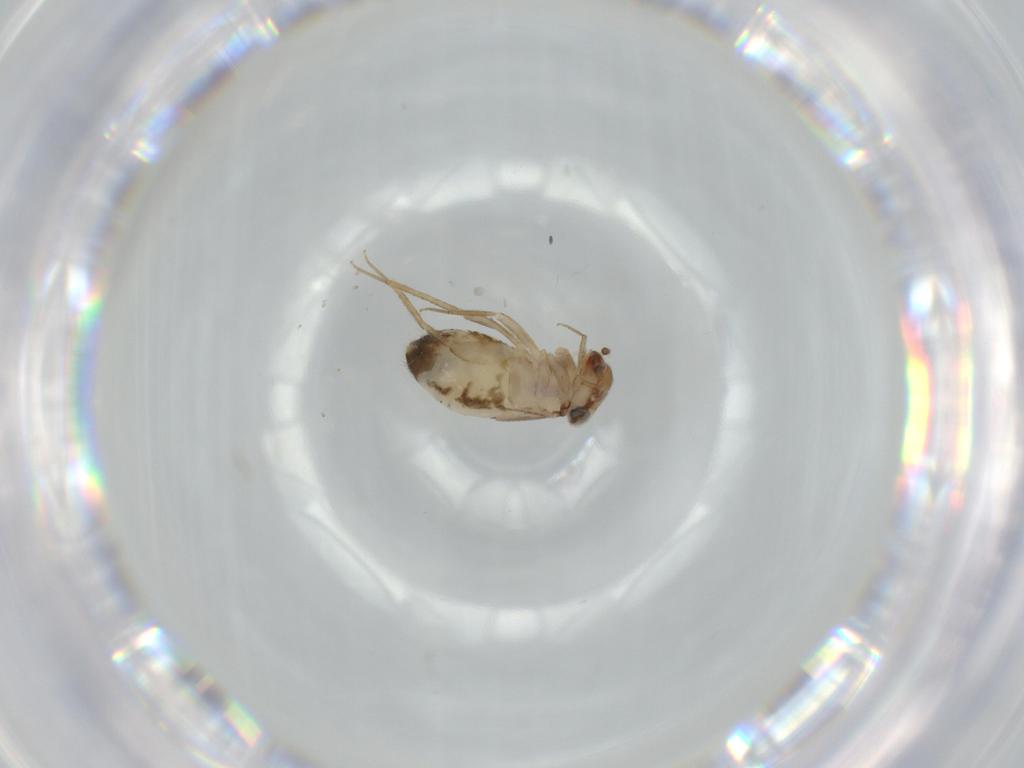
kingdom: Animalia
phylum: Arthropoda
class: Insecta
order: Psocodea
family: Ectopsocidae
